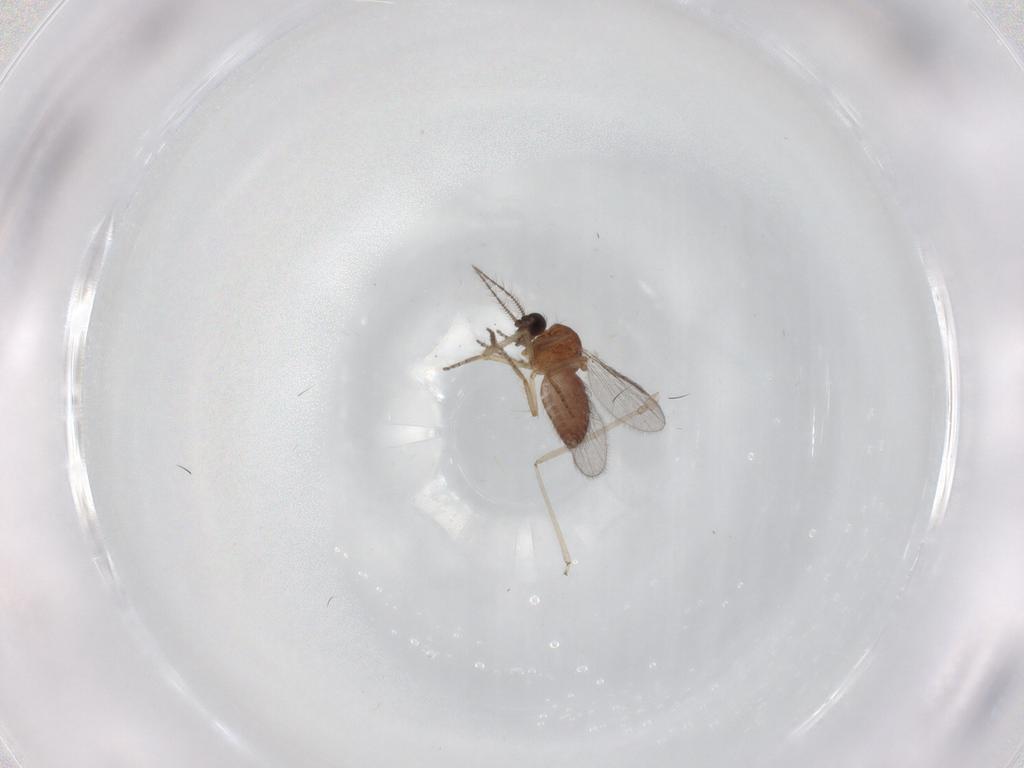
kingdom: Animalia
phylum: Arthropoda
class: Insecta
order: Diptera
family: Ceratopogonidae
